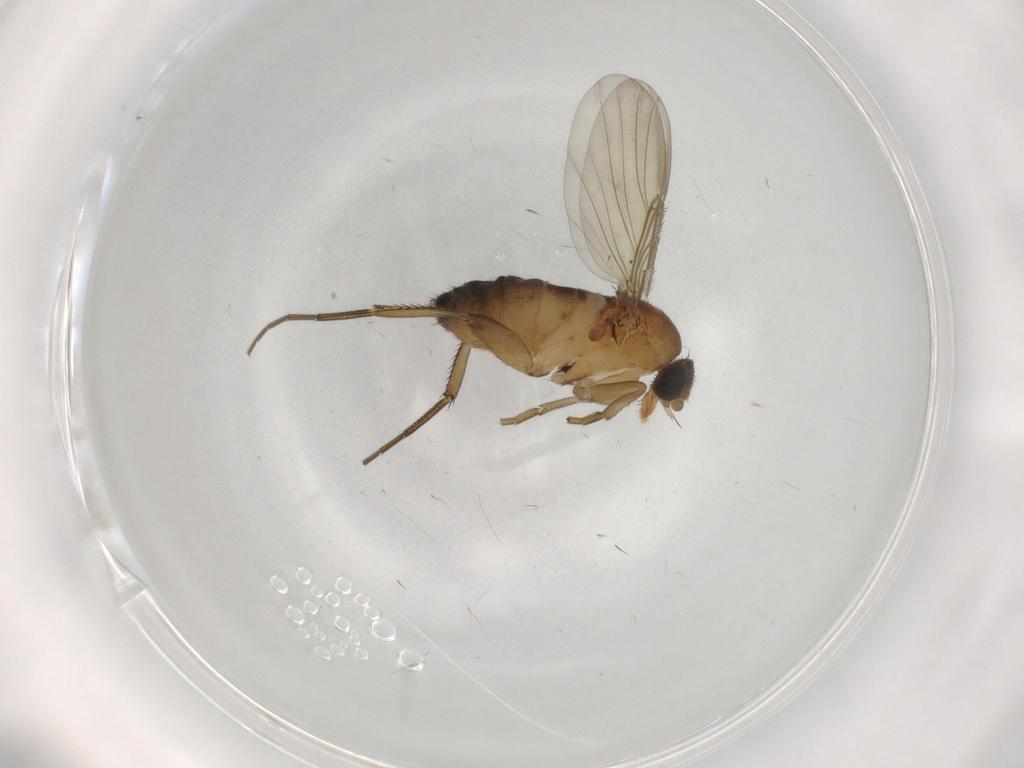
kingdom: Animalia
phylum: Arthropoda
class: Insecta
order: Diptera
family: Phoridae
